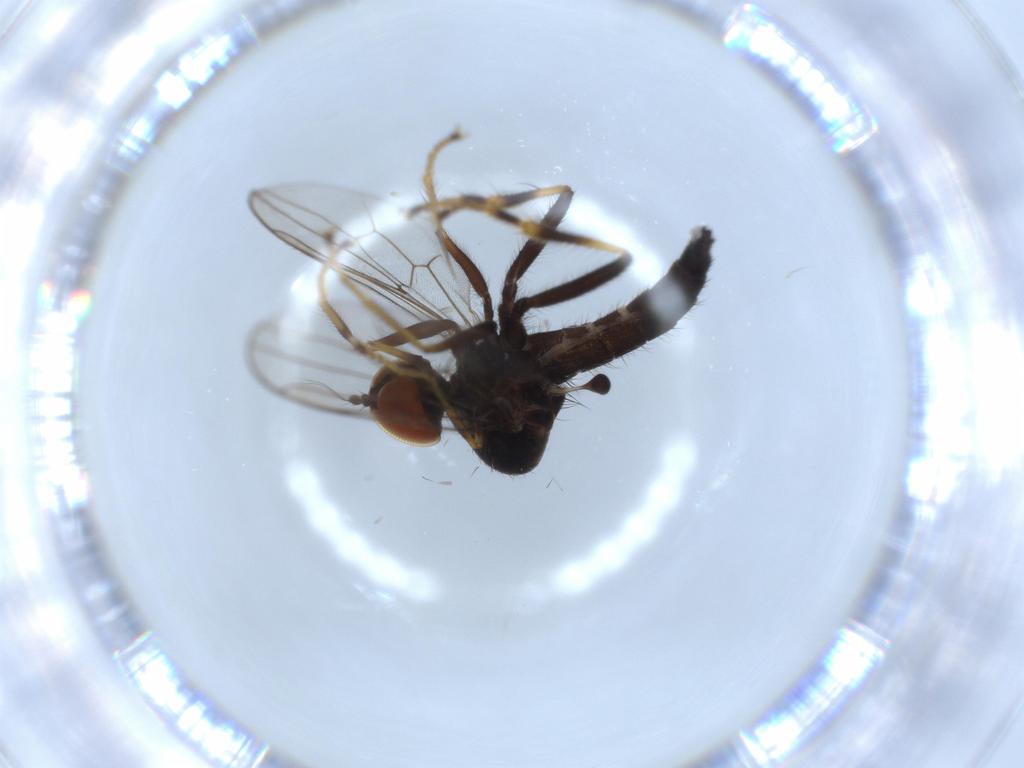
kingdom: Animalia
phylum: Arthropoda
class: Insecta
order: Diptera
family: Hybotidae
